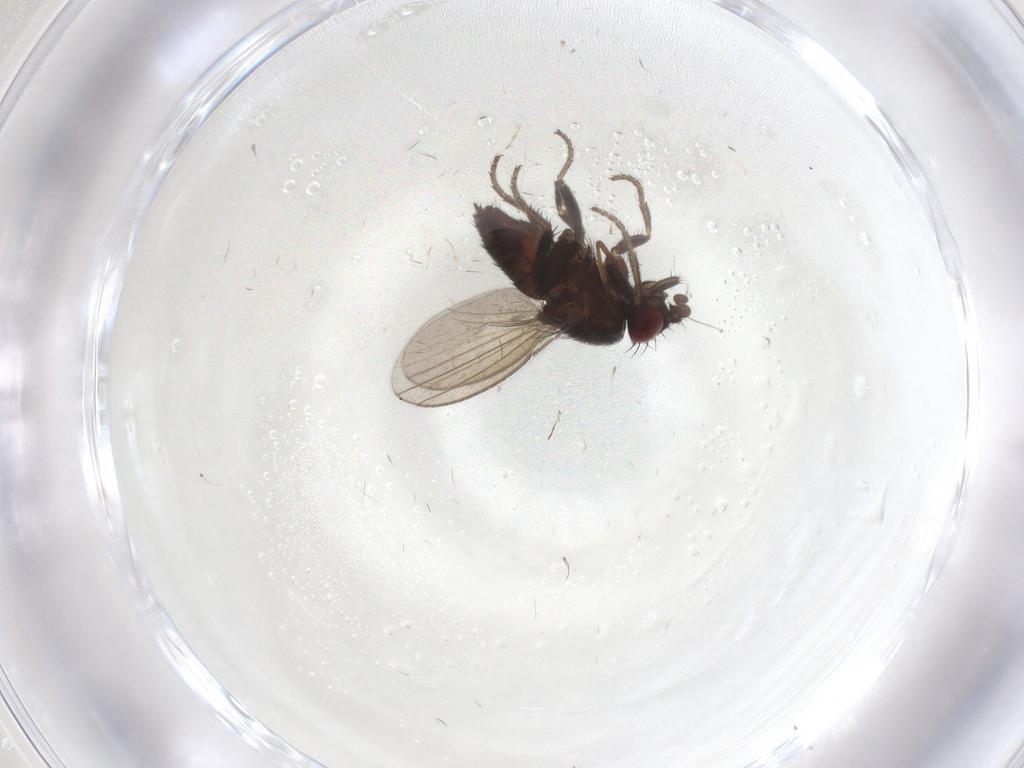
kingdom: Animalia
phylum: Arthropoda
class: Insecta
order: Diptera
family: Milichiidae
